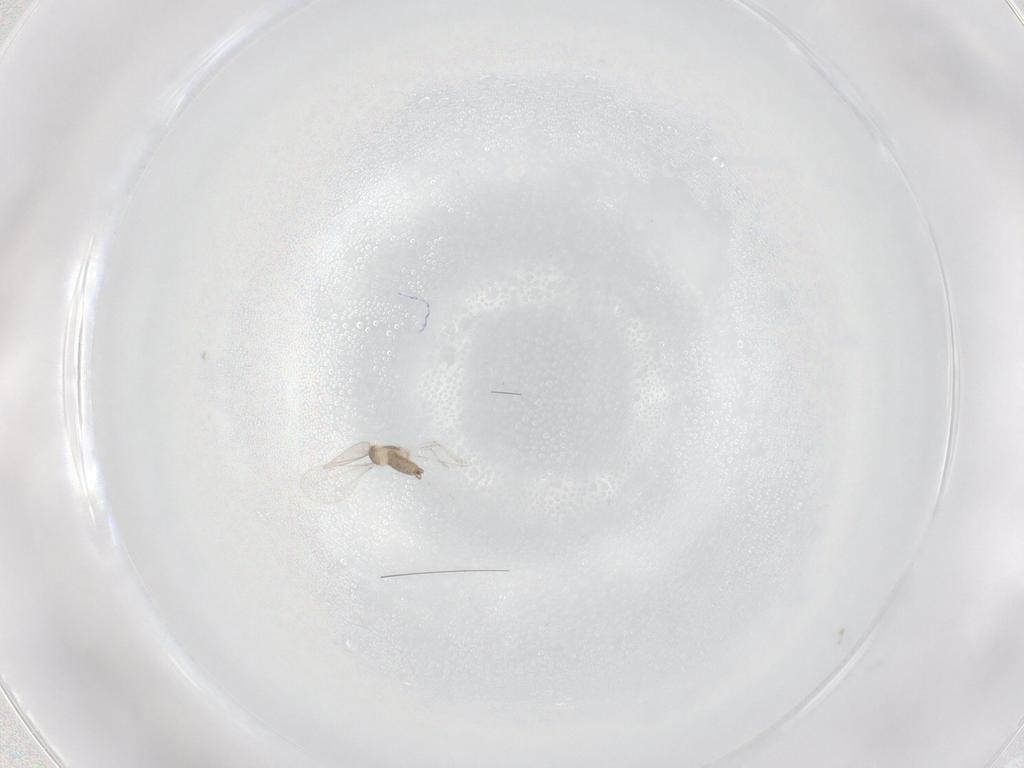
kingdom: Animalia
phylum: Arthropoda
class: Insecta
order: Diptera
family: Cecidomyiidae
